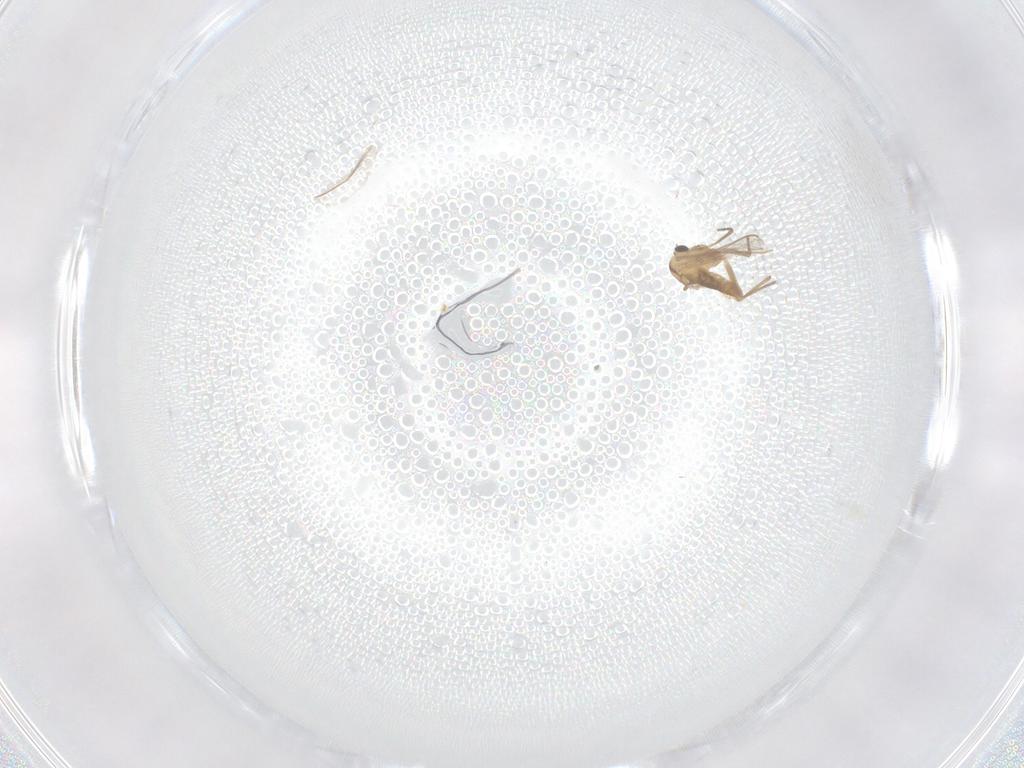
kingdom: Animalia
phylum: Arthropoda
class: Insecta
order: Diptera
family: Chironomidae
